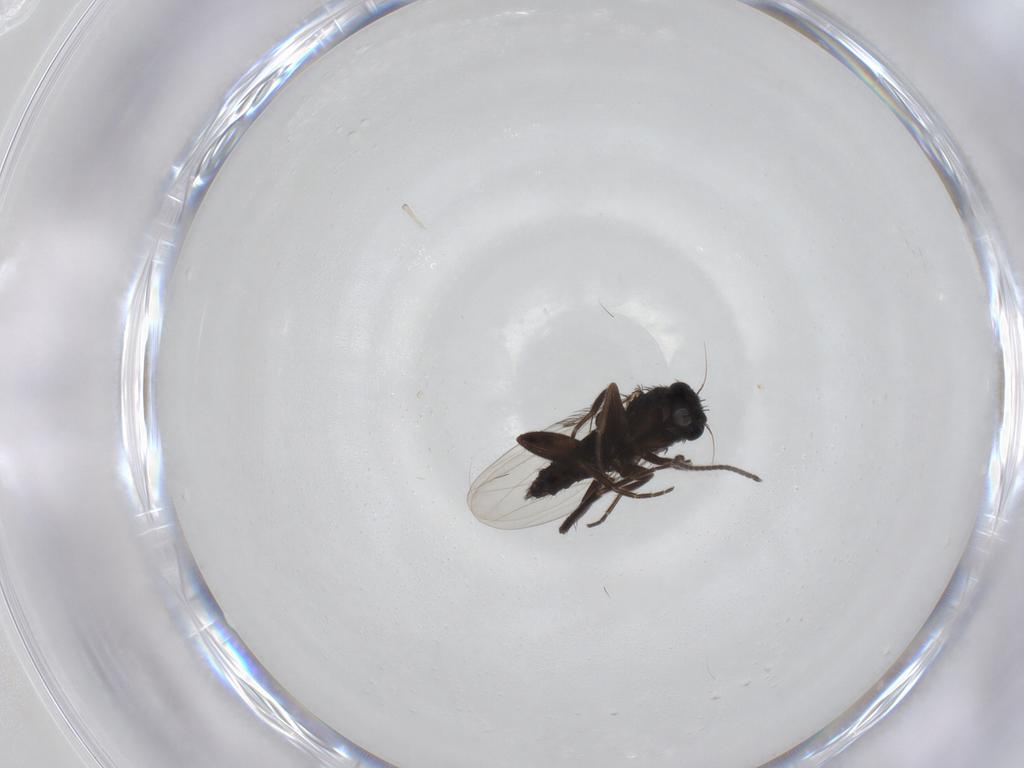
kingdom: Animalia
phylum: Arthropoda
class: Insecta
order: Diptera
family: Phoridae
